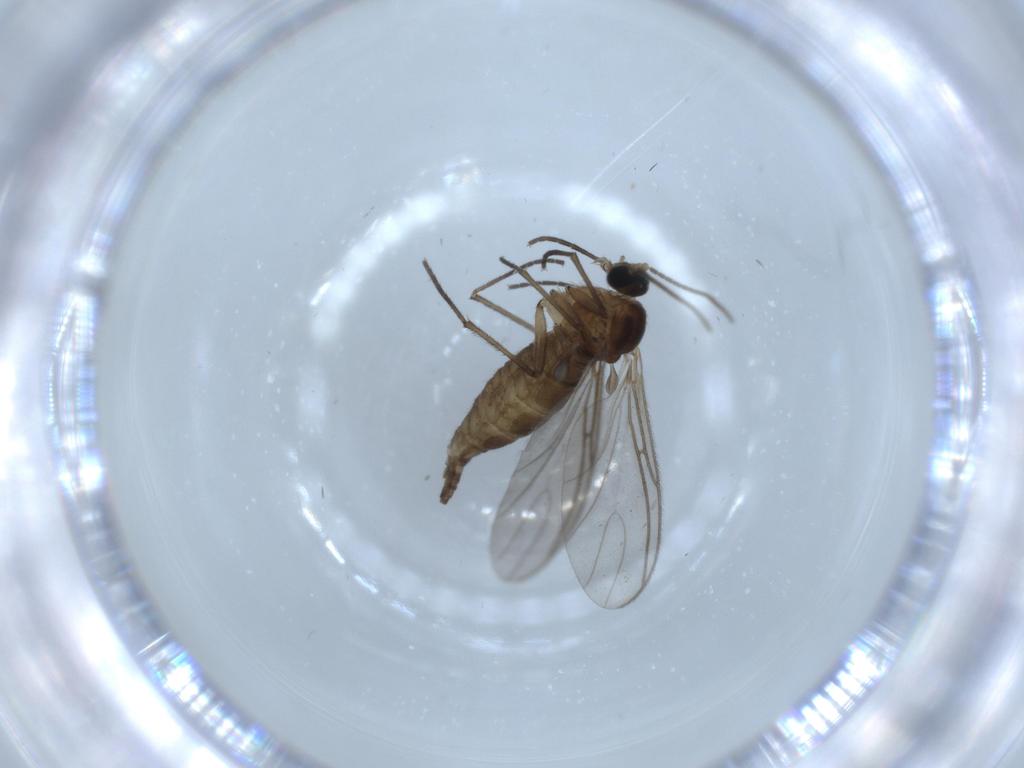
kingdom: Animalia
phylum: Arthropoda
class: Insecta
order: Diptera
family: Sciaridae
